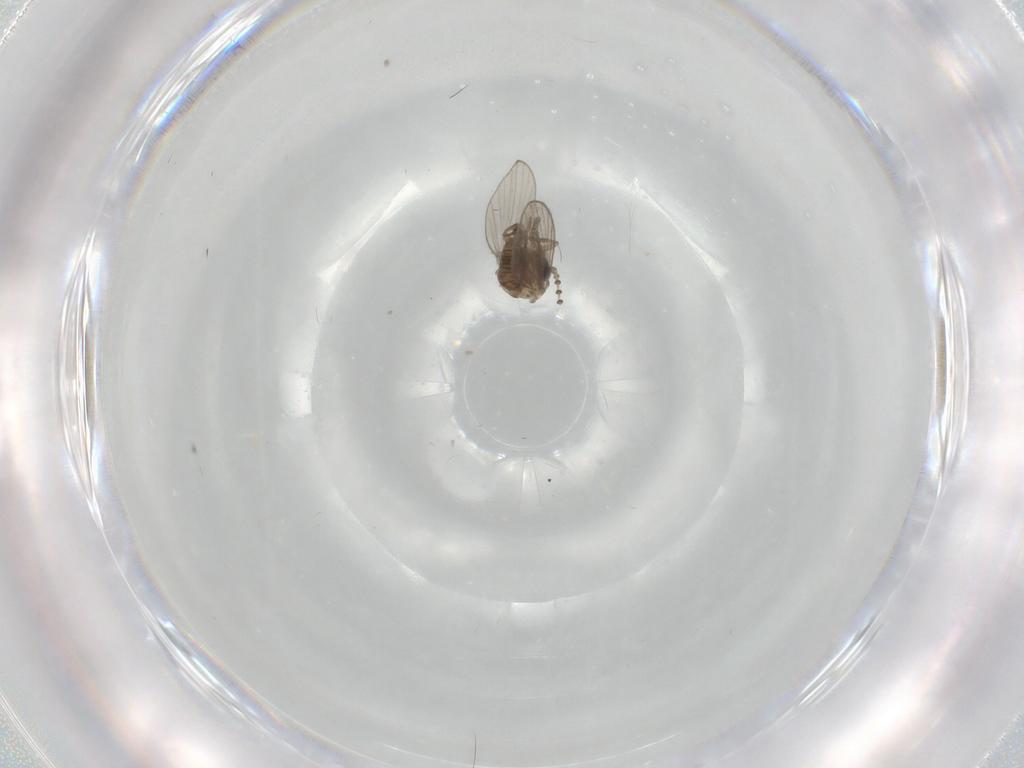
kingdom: Animalia
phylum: Arthropoda
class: Insecta
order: Diptera
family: Psychodidae
